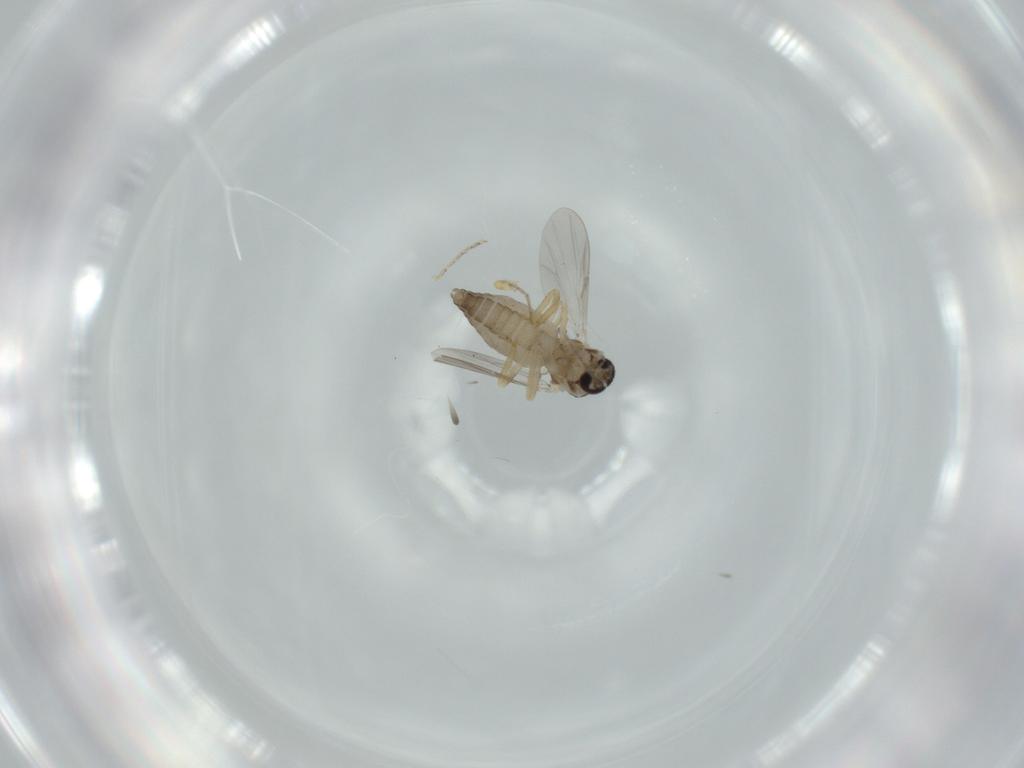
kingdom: Animalia
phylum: Arthropoda
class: Insecta
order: Diptera
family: Ceratopogonidae
